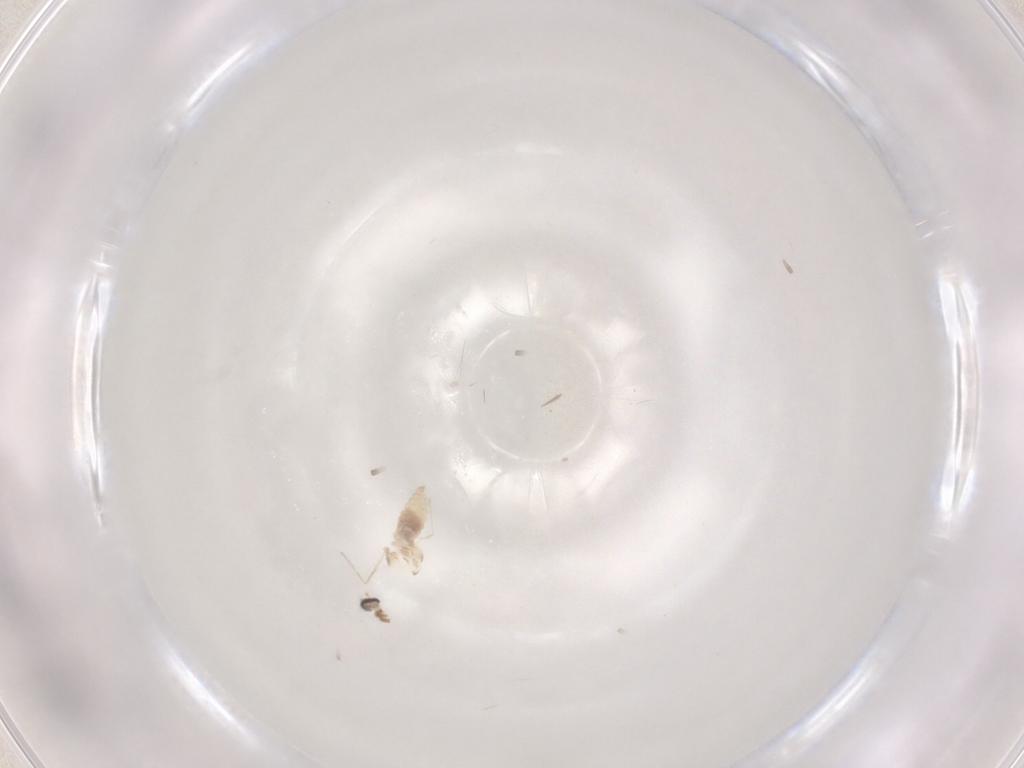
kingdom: Animalia
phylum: Arthropoda
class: Insecta
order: Diptera
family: Cecidomyiidae
